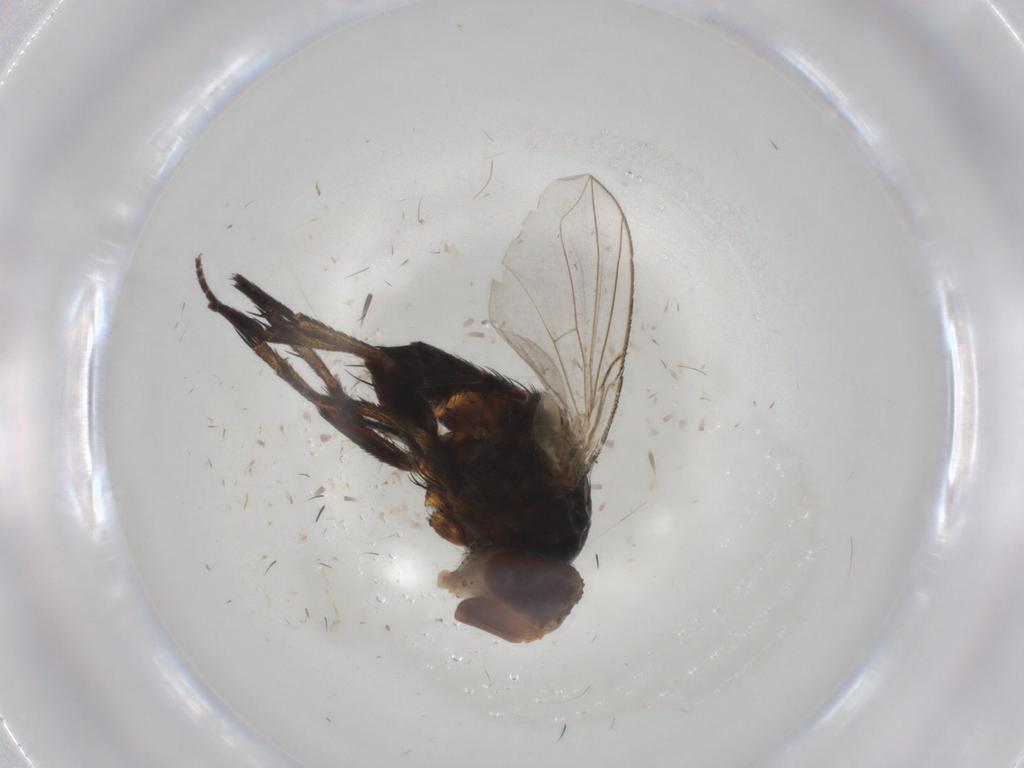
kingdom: Animalia
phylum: Arthropoda
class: Insecta
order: Diptera
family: Glossinidae
